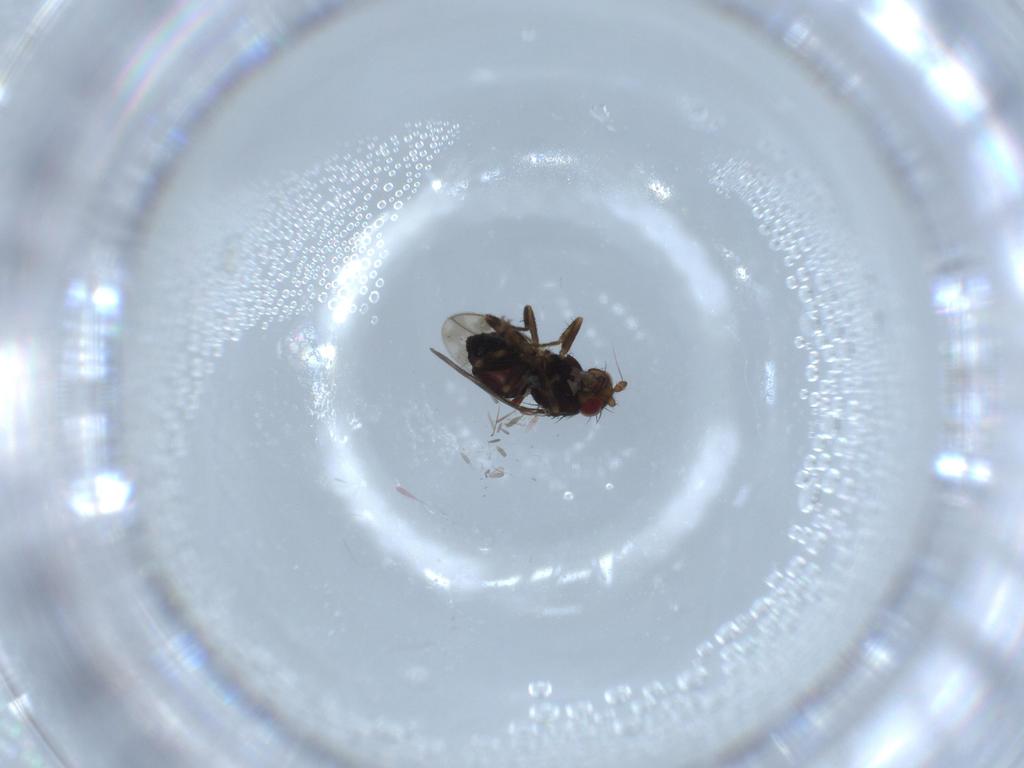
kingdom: Animalia
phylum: Arthropoda
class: Insecta
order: Diptera
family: Sphaeroceridae
